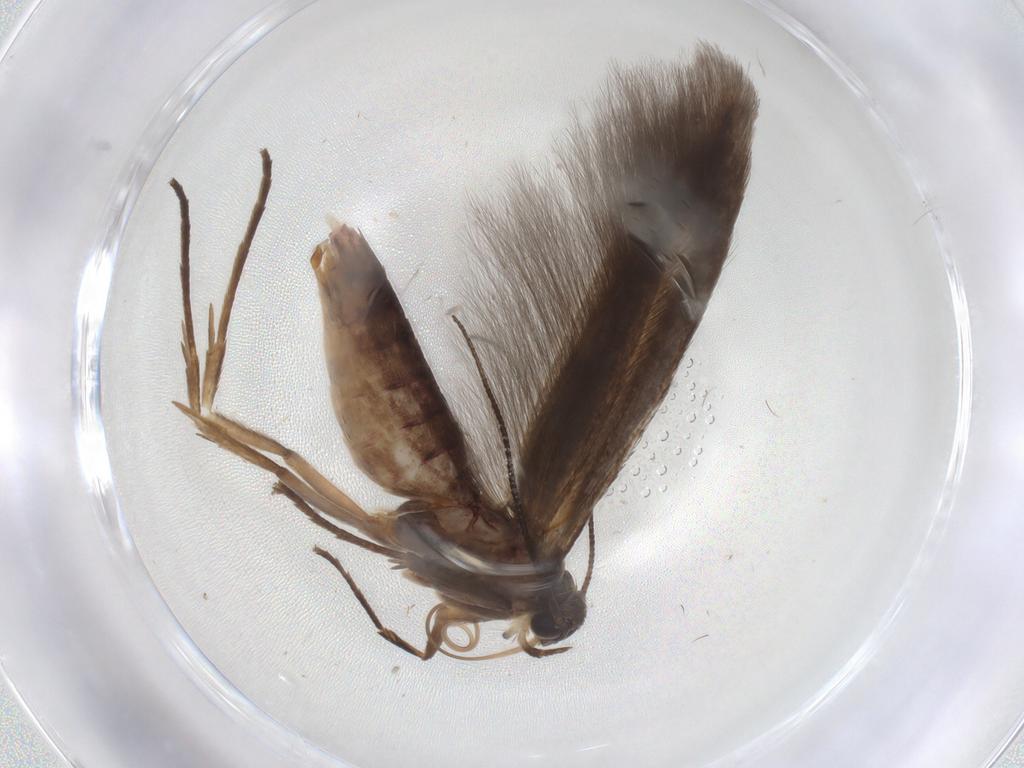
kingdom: Animalia
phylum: Arthropoda
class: Insecta
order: Lepidoptera
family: Scythrididae
